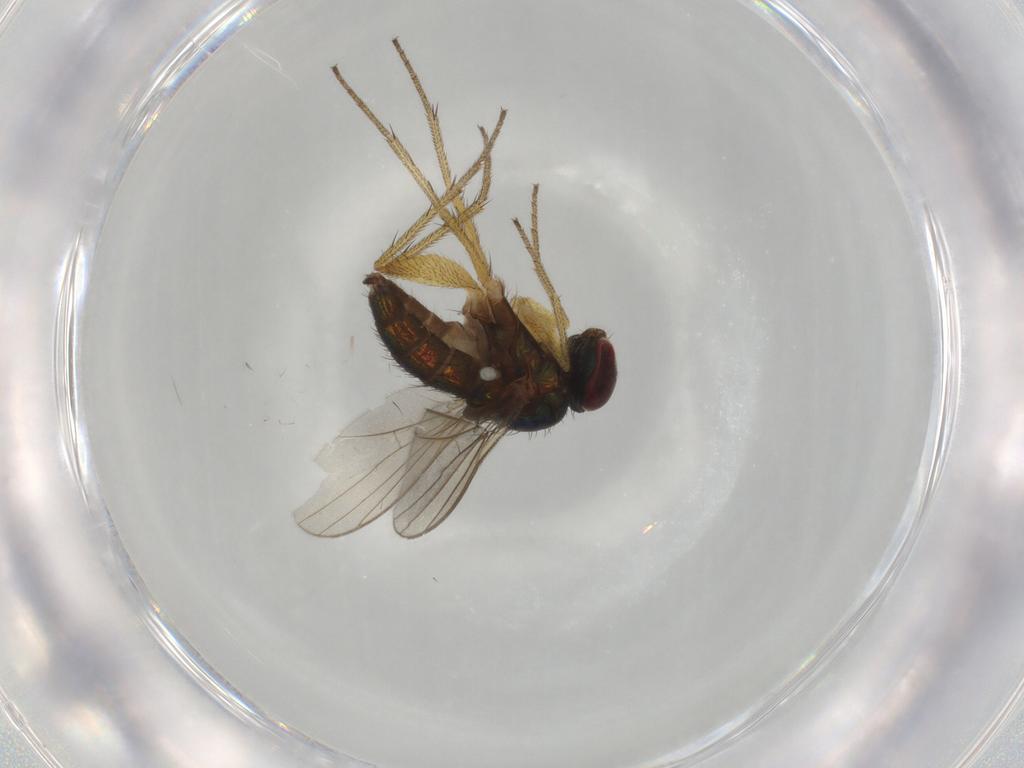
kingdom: Animalia
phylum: Arthropoda
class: Insecta
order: Diptera
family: Dolichopodidae
